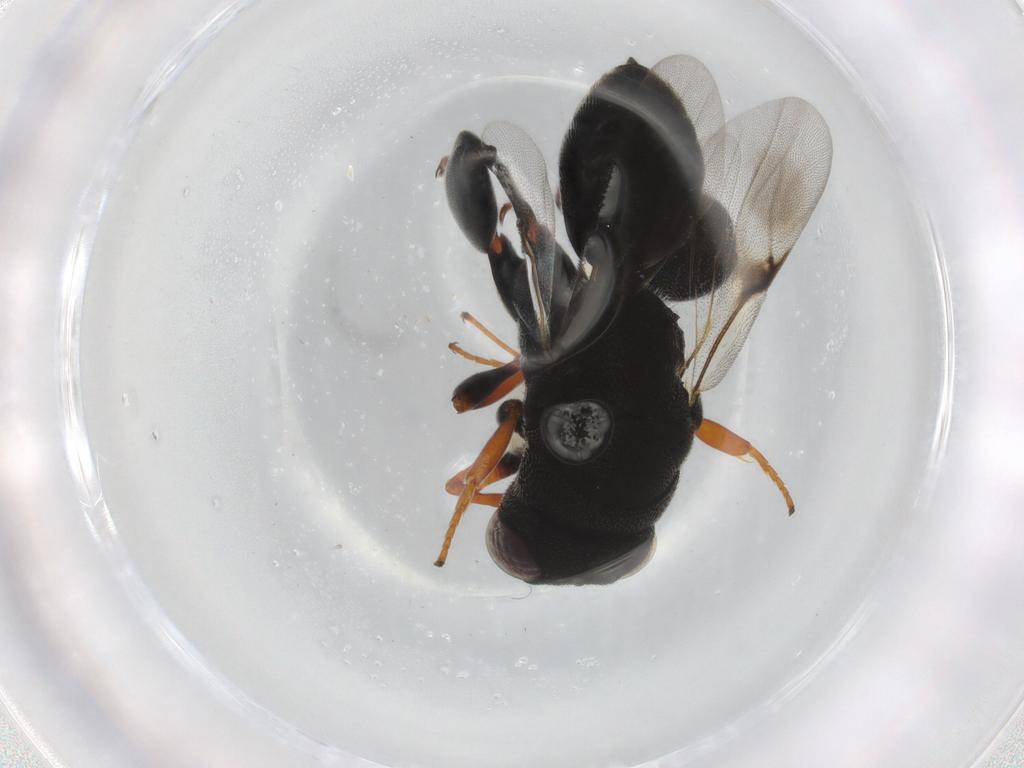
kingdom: Animalia
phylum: Arthropoda
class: Insecta
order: Hymenoptera
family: Chalcididae
